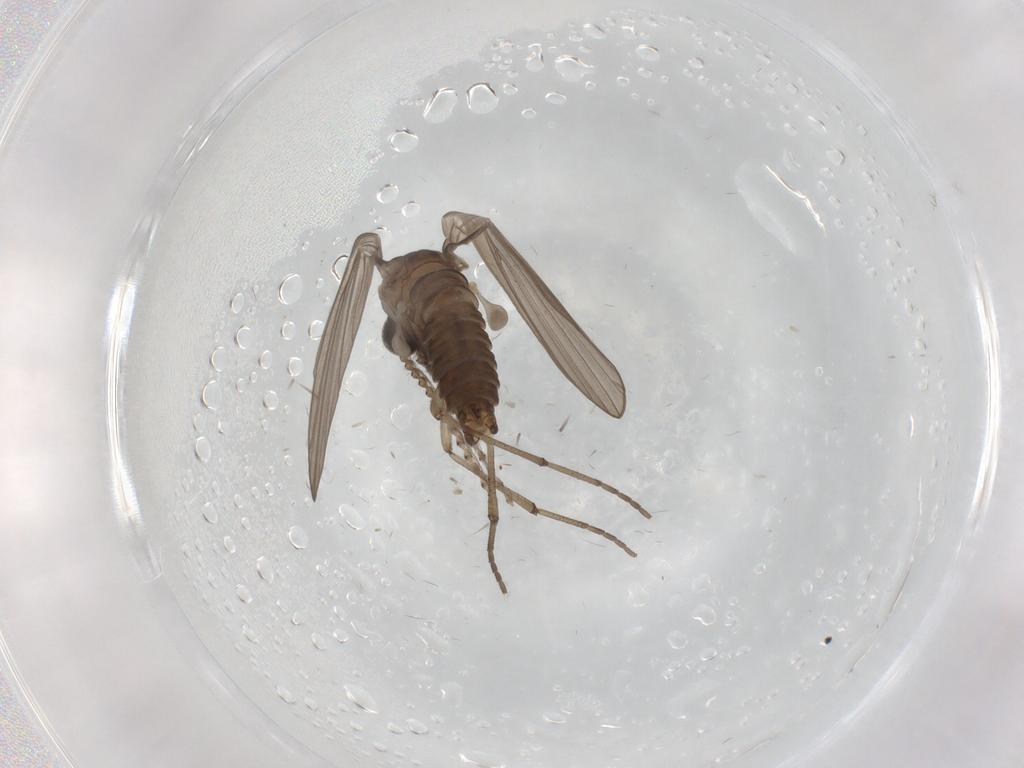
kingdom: Animalia
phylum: Arthropoda
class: Insecta
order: Diptera
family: Phoridae
